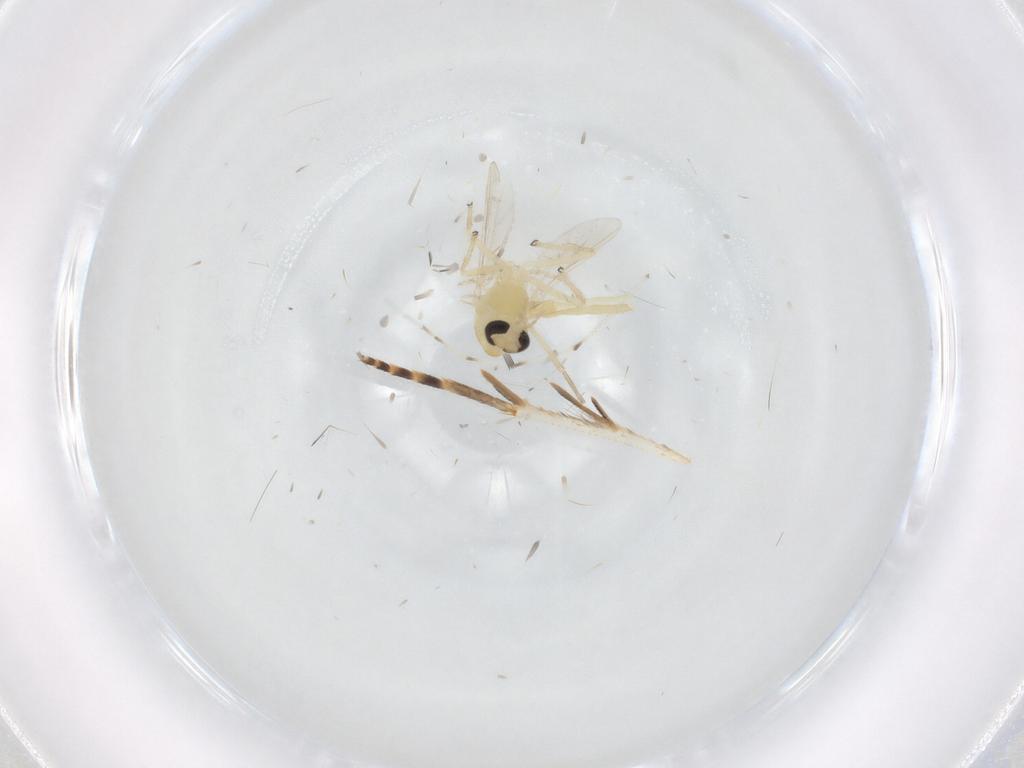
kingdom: Animalia
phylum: Arthropoda
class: Insecta
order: Diptera
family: Chironomidae
